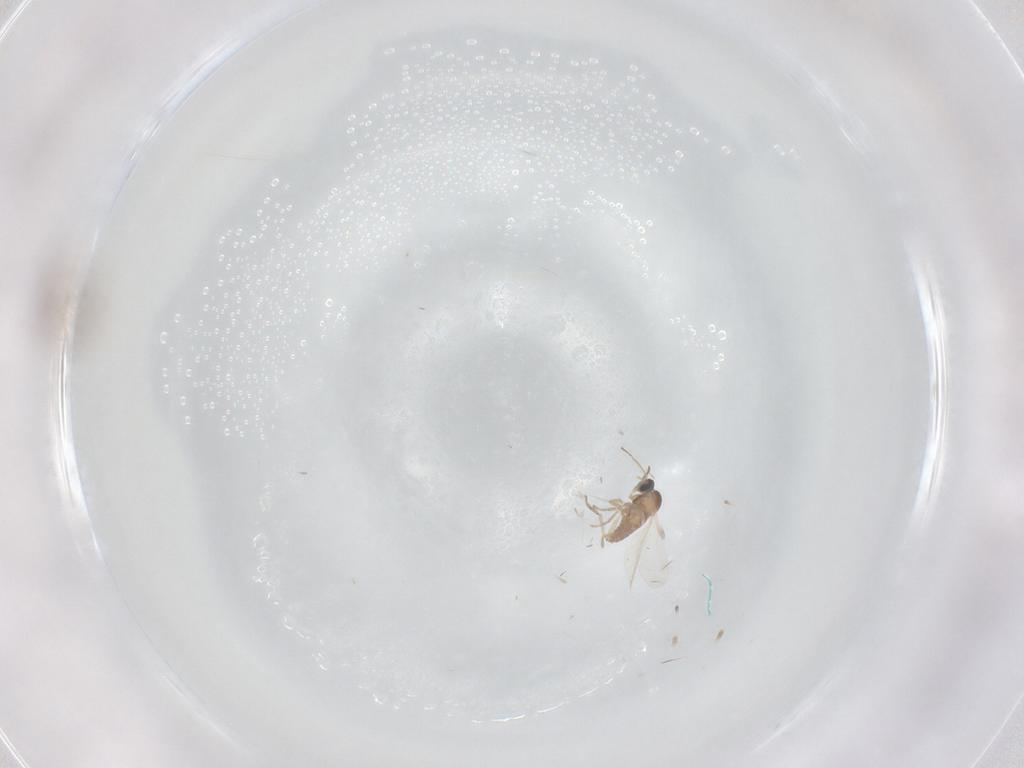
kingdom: Animalia
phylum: Arthropoda
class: Insecta
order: Diptera
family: Cecidomyiidae
